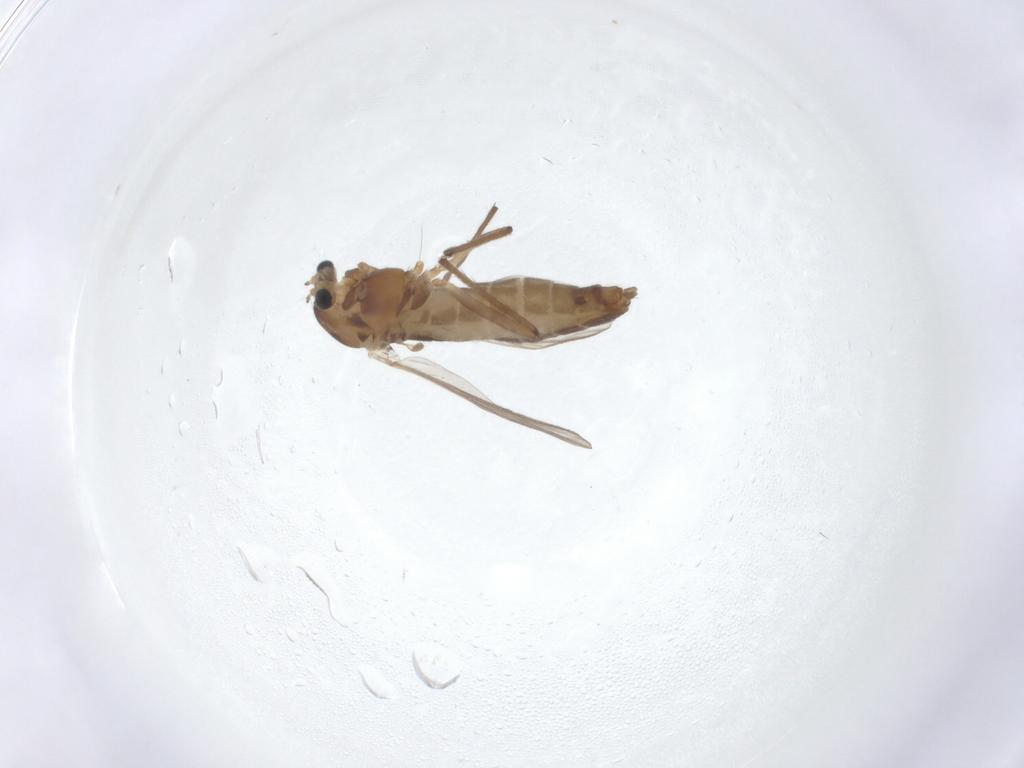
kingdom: Animalia
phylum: Arthropoda
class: Insecta
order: Diptera
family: Chironomidae
